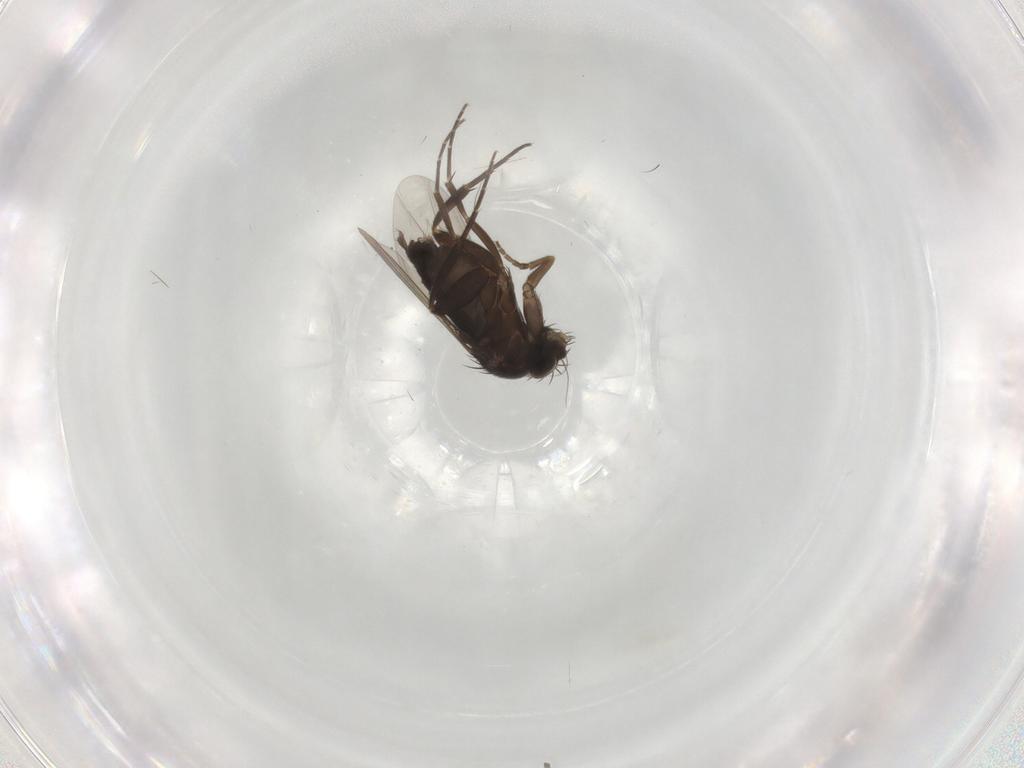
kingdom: Animalia
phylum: Arthropoda
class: Insecta
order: Diptera
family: Phoridae
